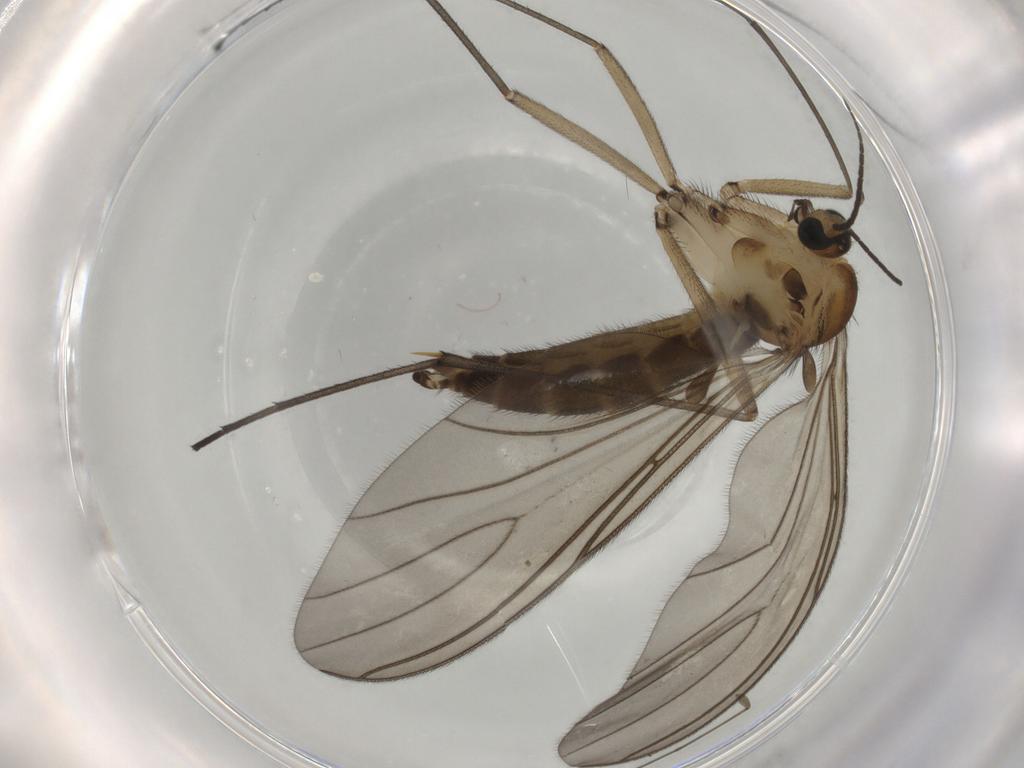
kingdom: Animalia
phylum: Arthropoda
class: Insecta
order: Diptera
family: Sciaridae
